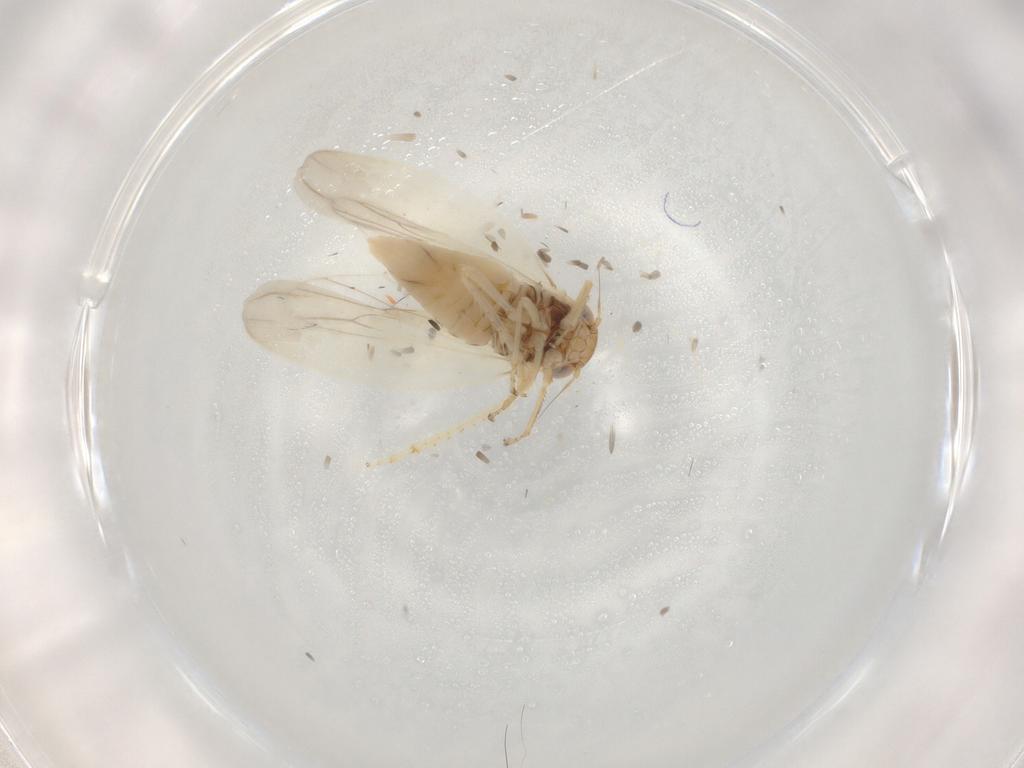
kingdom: Animalia
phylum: Arthropoda
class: Insecta
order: Hemiptera
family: Cicadellidae
